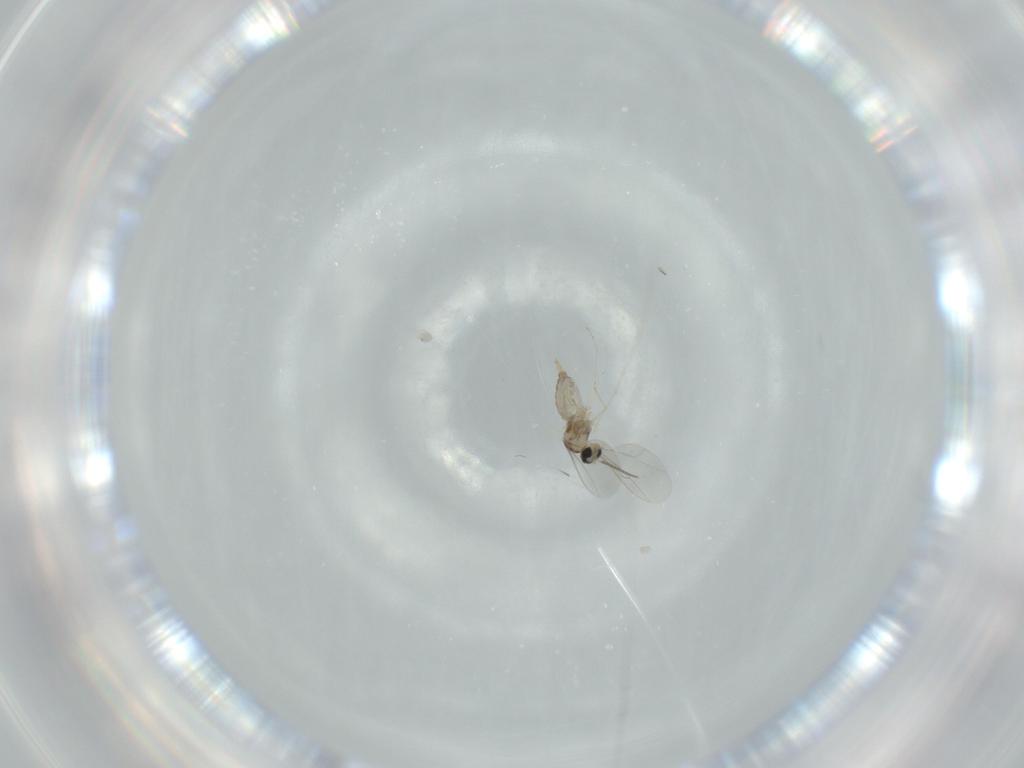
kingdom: Animalia
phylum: Arthropoda
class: Insecta
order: Diptera
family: Cecidomyiidae
